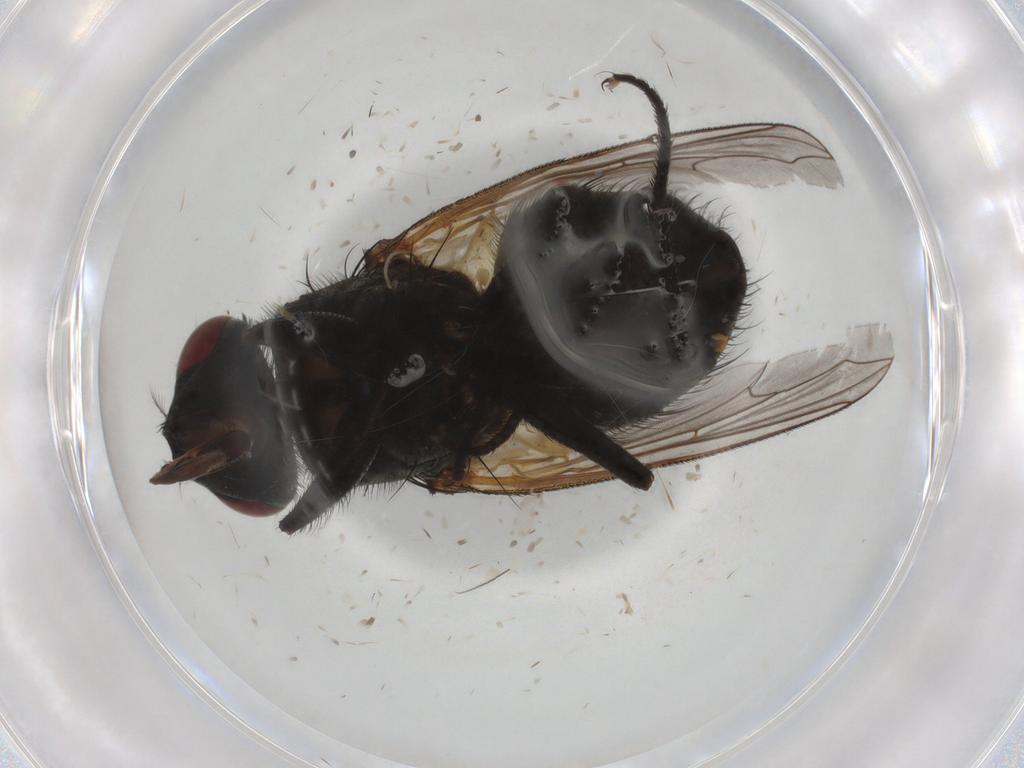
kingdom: Animalia
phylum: Arthropoda
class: Insecta
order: Diptera
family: Muscidae
